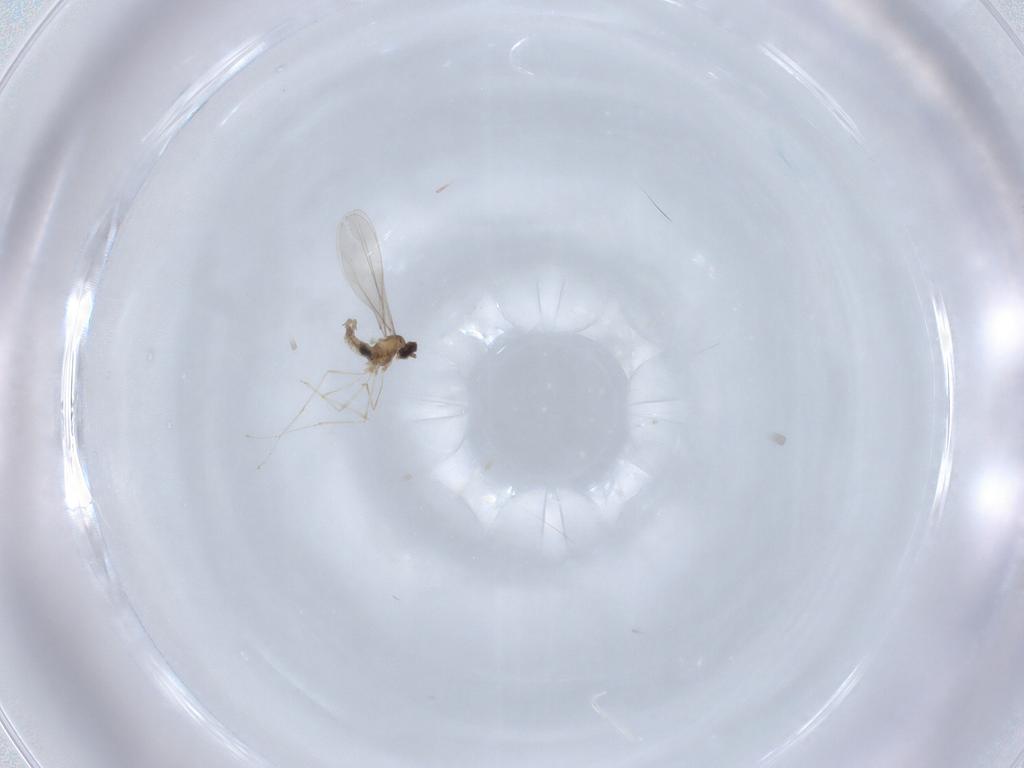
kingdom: Animalia
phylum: Arthropoda
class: Insecta
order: Diptera
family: Cecidomyiidae
